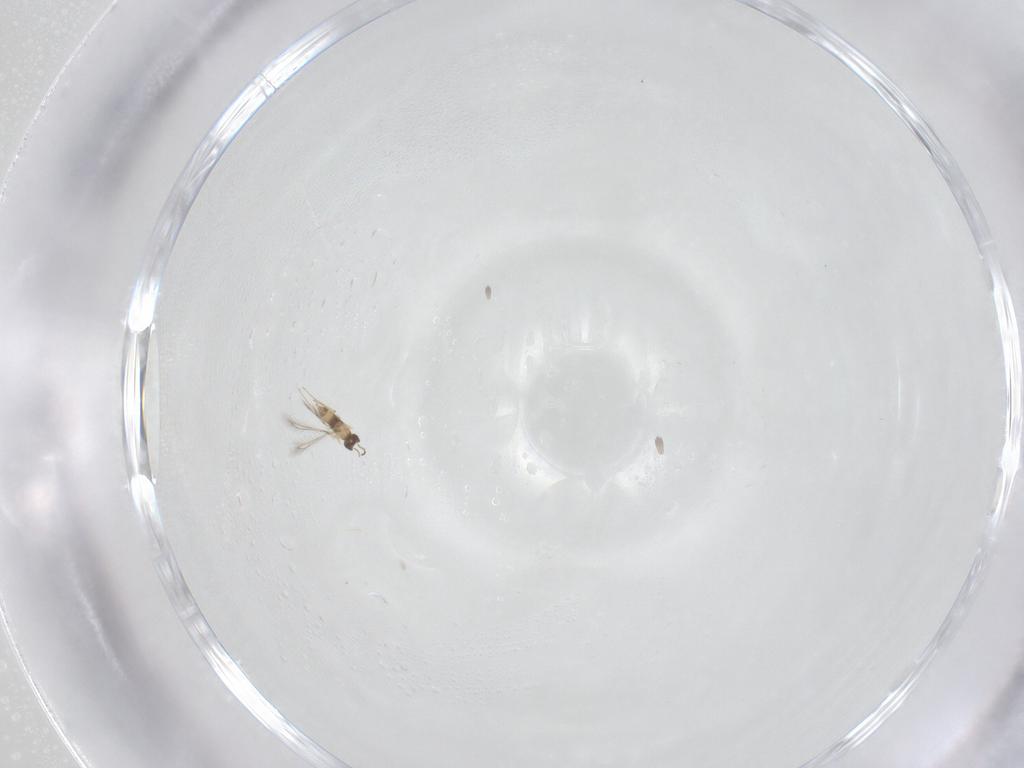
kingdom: Animalia
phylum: Arthropoda
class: Insecta
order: Hymenoptera
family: Mymaridae
